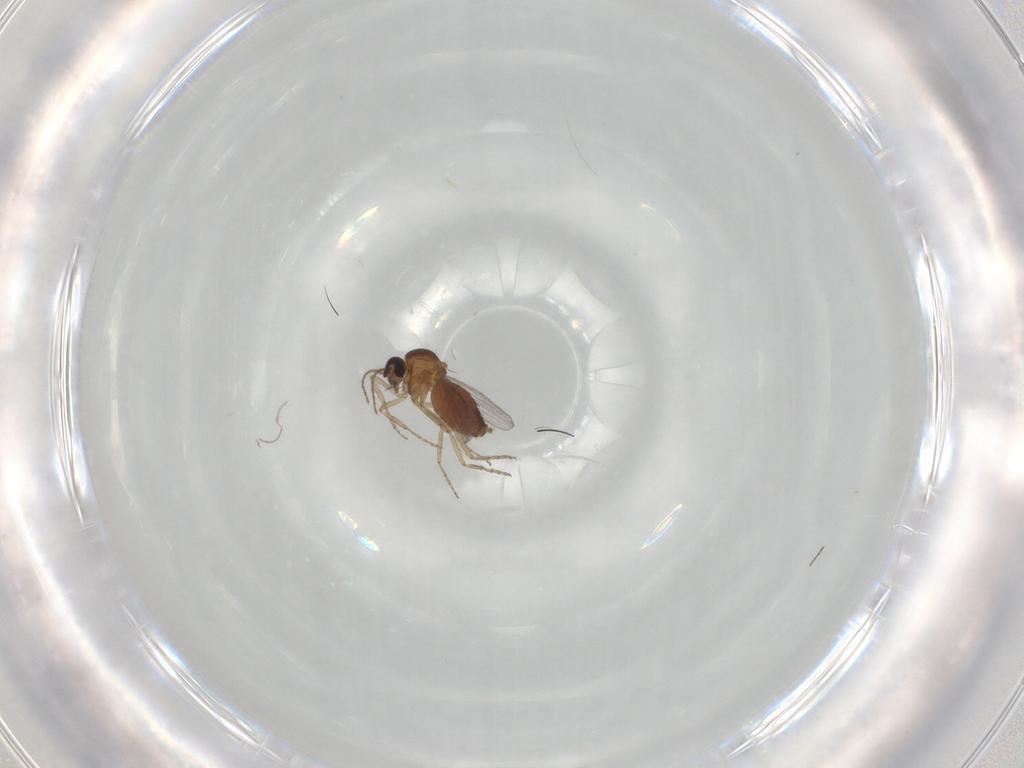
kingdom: Animalia
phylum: Arthropoda
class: Insecta
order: Diptera
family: Chironomidae
